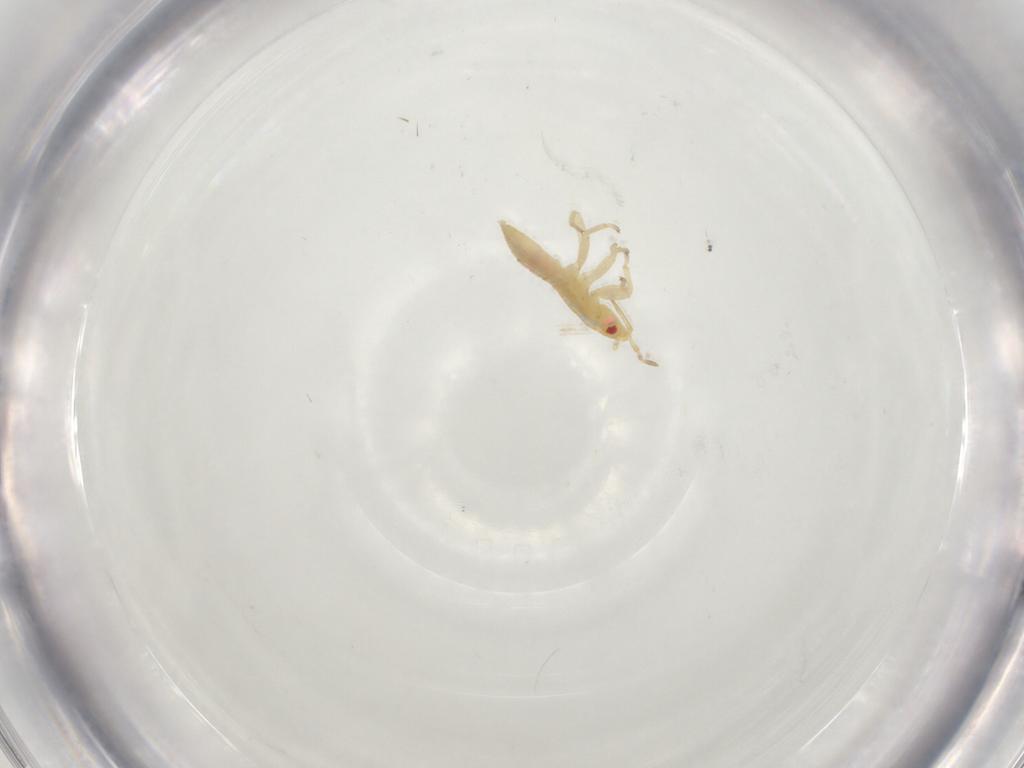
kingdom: Animalia
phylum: Arthropoda
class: Insecta
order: Hemiptera
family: Anthocoridae
